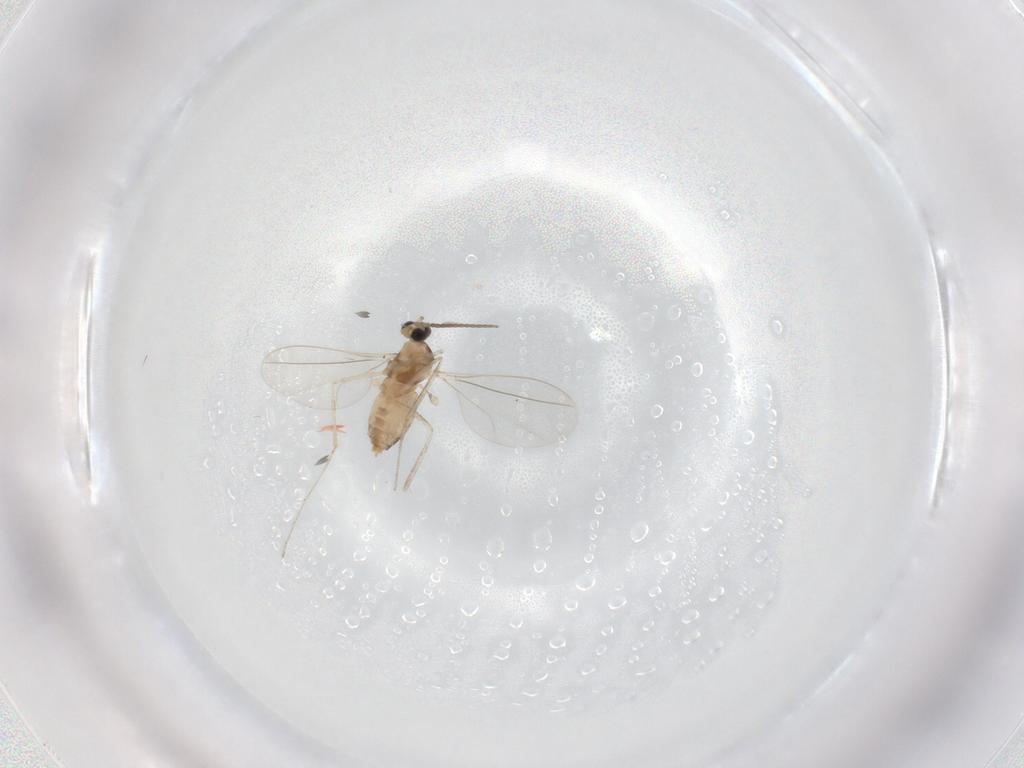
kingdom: Animalia
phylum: Arthropoda
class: Insecta
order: Diptera
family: Cecidomyiidae
